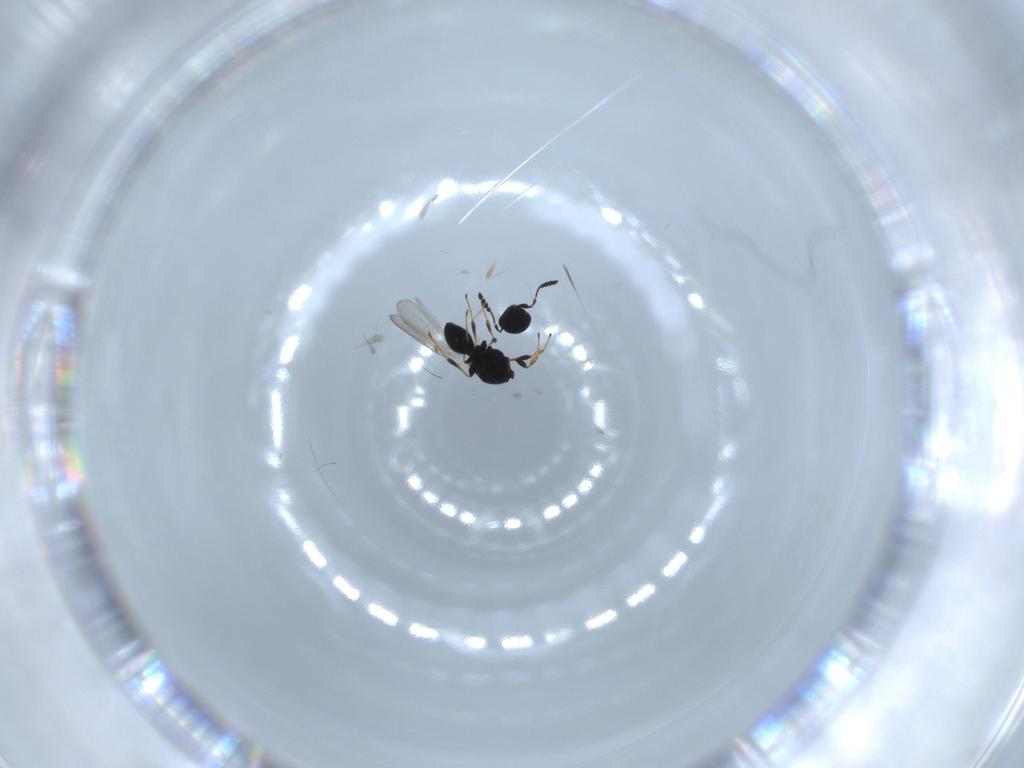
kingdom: Animalia
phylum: Arthropoda
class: Insecta
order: Hymenoptera
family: Platygastridae
